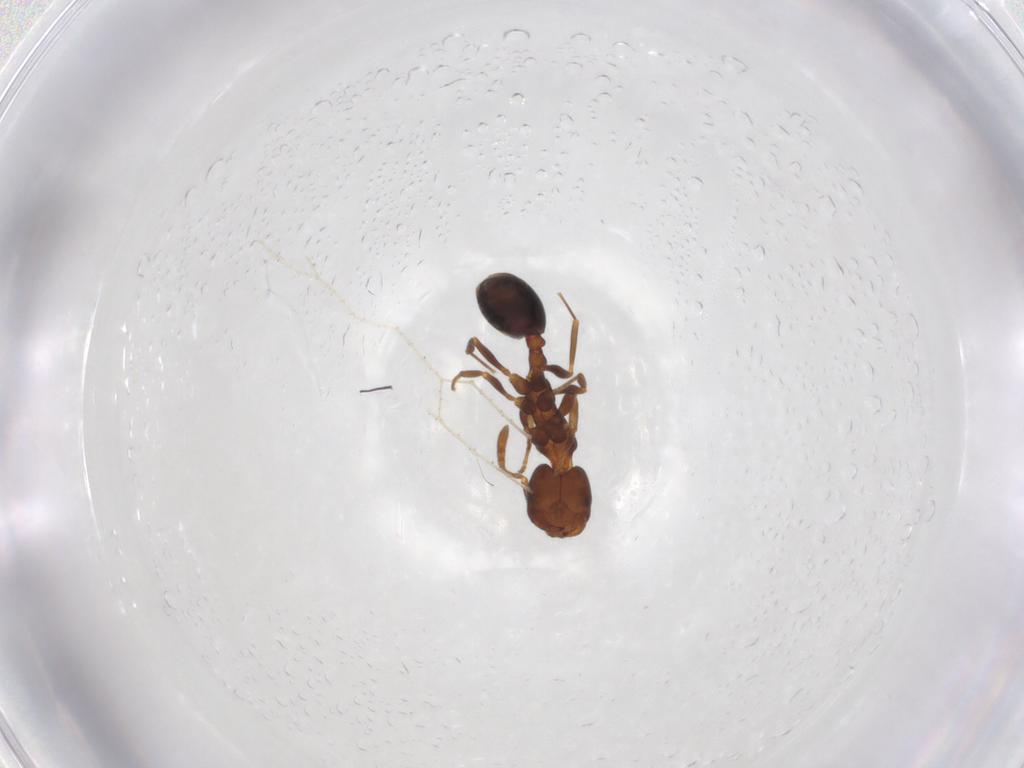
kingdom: Animalia
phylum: Arthropoda
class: Insecta
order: Hymenoptera
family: Formicidae
